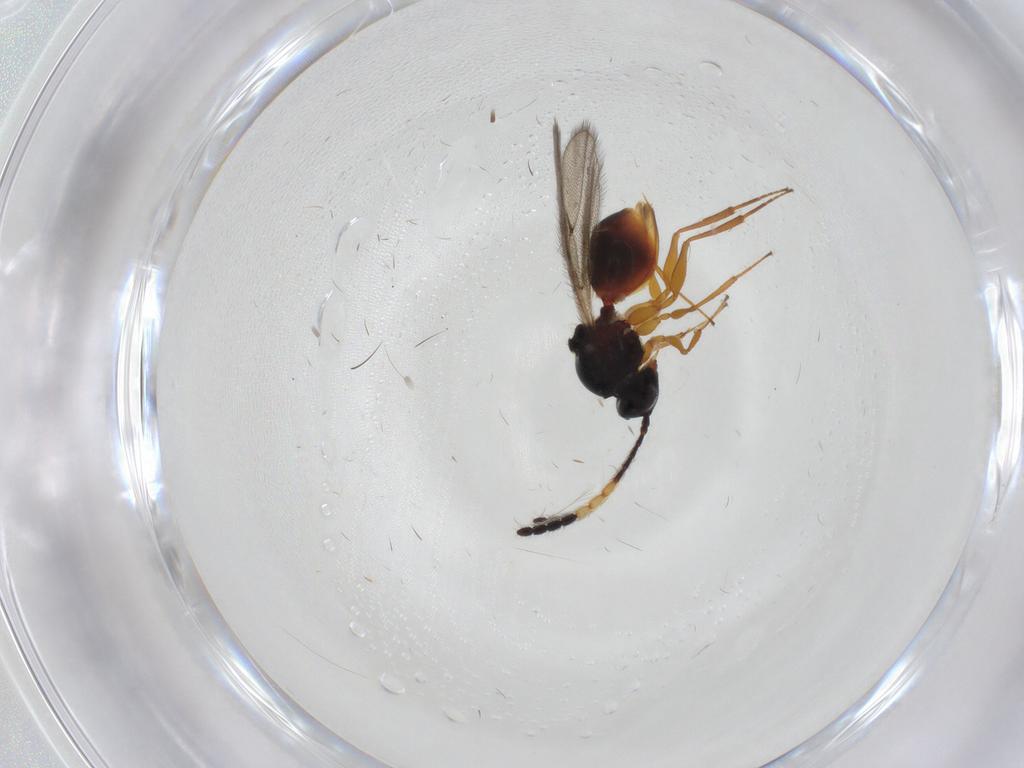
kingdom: Animalia
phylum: Arthropoda
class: Insecta
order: Hymenoptera
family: Figitidae
